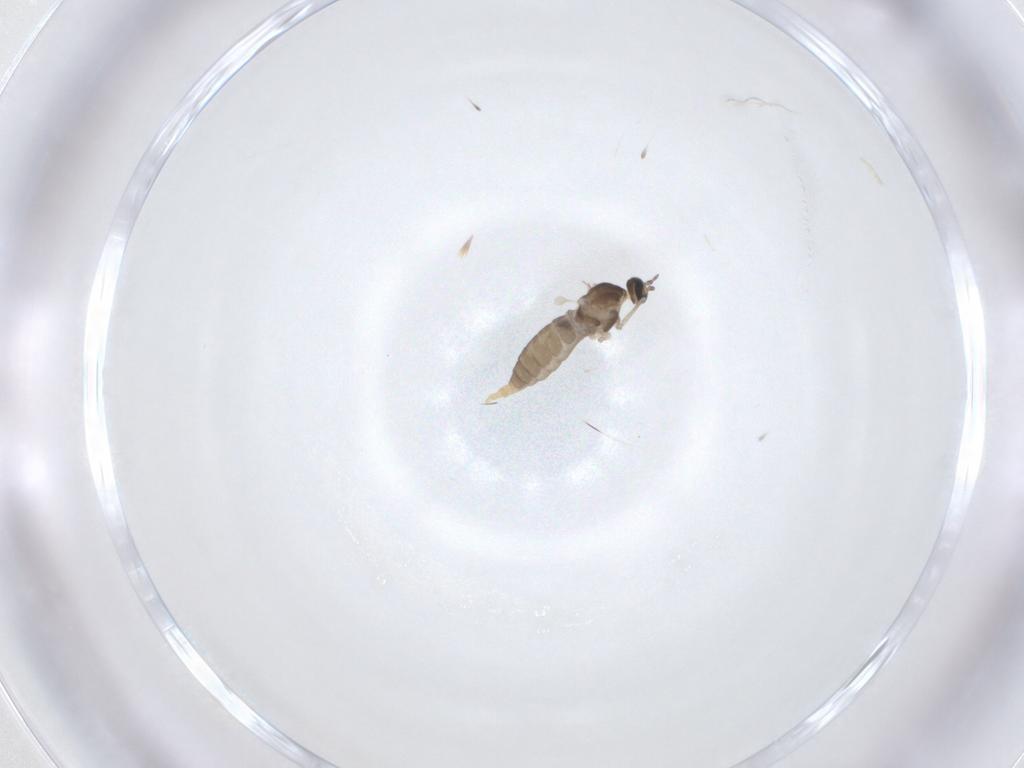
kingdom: Animalia
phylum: Arthropoda
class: Insecta
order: Diptera
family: Cecidomyiidae
